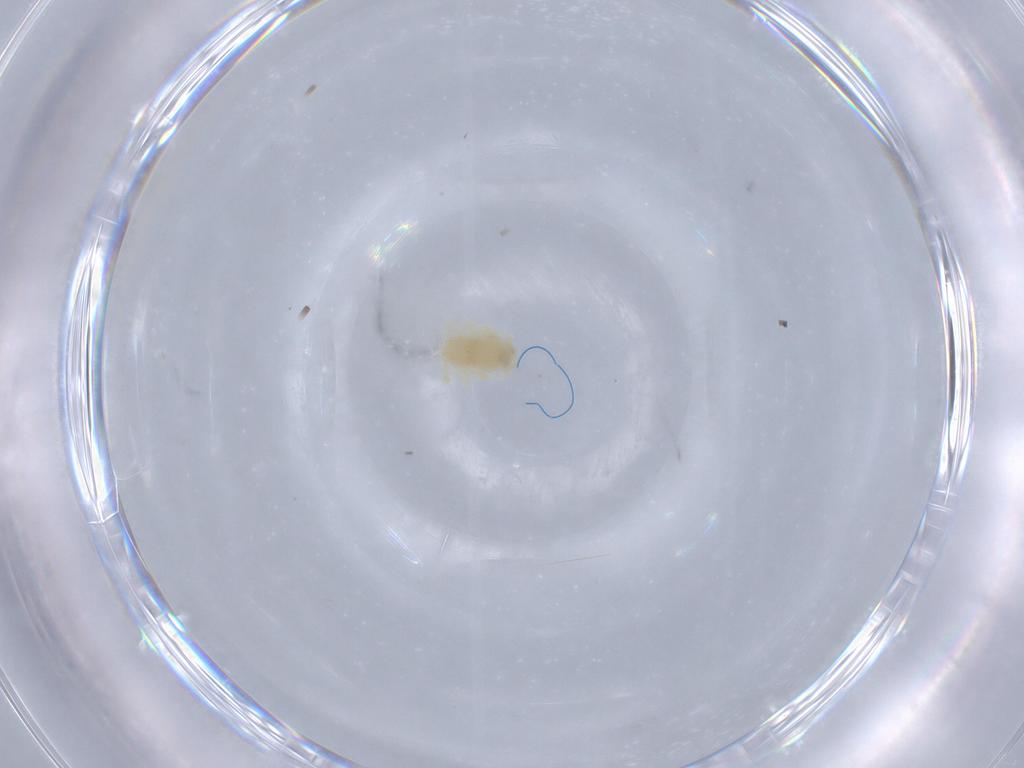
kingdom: Animalia
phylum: Arthropoda
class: Arachnida
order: Trombidiformes
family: Anystidae
